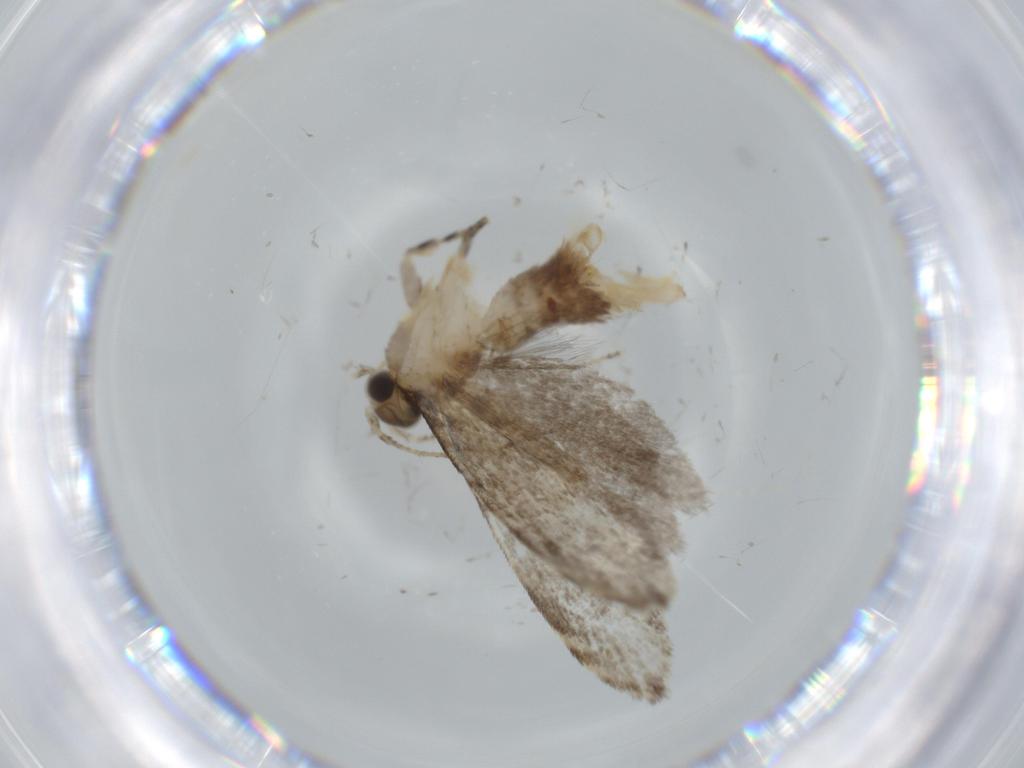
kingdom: Animalia
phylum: Arthropoda
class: Insecta
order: Lepidoptera
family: Tineidae
